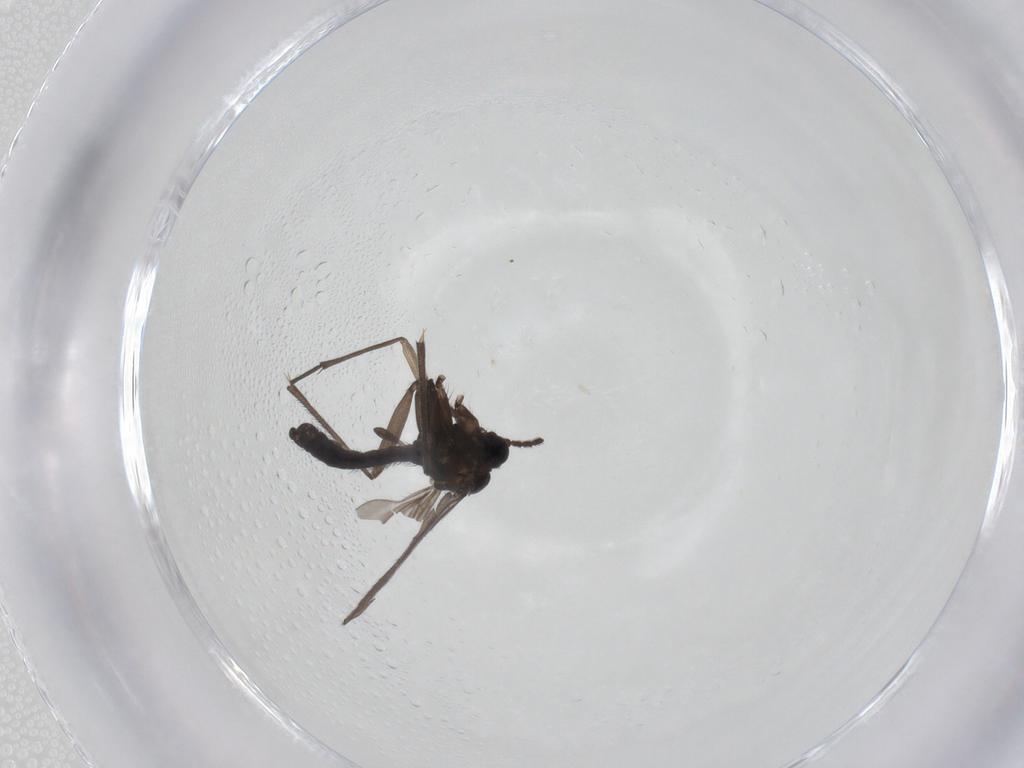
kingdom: Animalia
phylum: Arthropoda
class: Insecta
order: Diptera
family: Sciaridae
